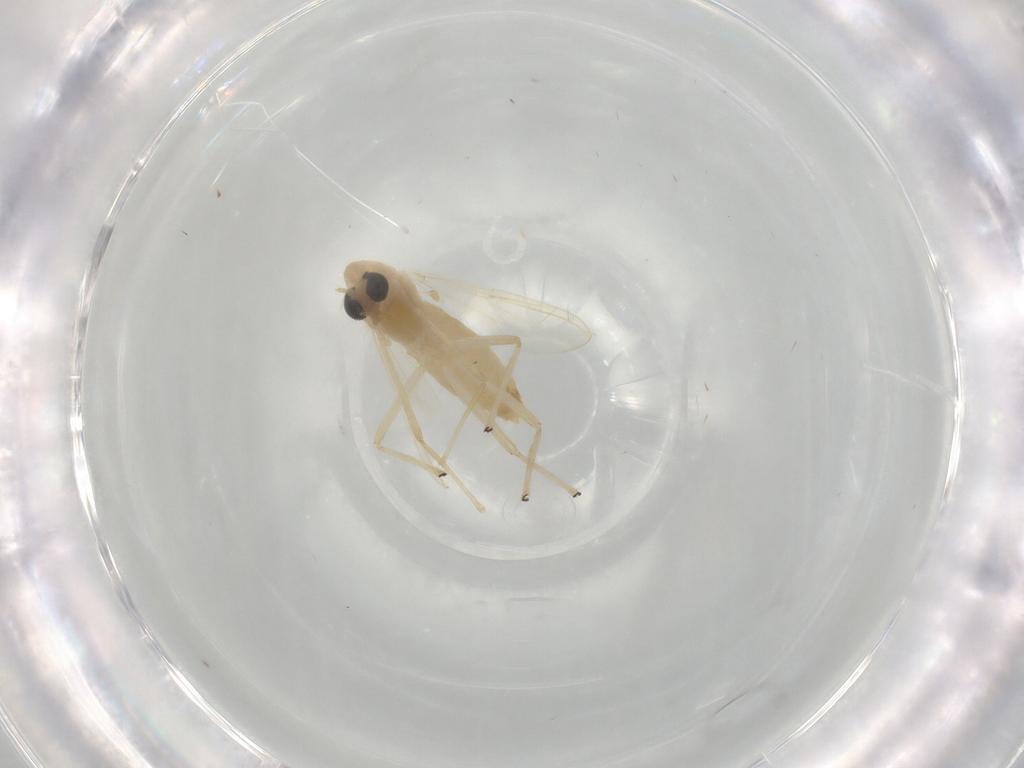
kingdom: Animalia
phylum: Arthropoda
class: Insecta
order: Diptera
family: Chironomidae
